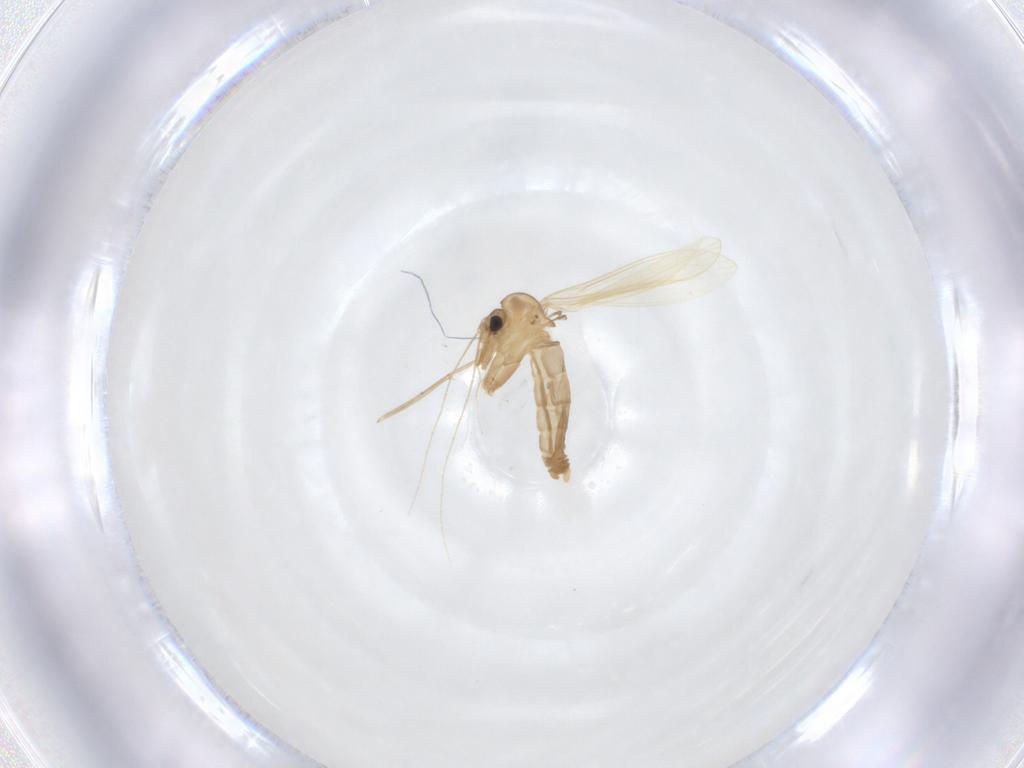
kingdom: Animalia
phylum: Arthropoda
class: Insecta
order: Diptera
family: Psychodidae
